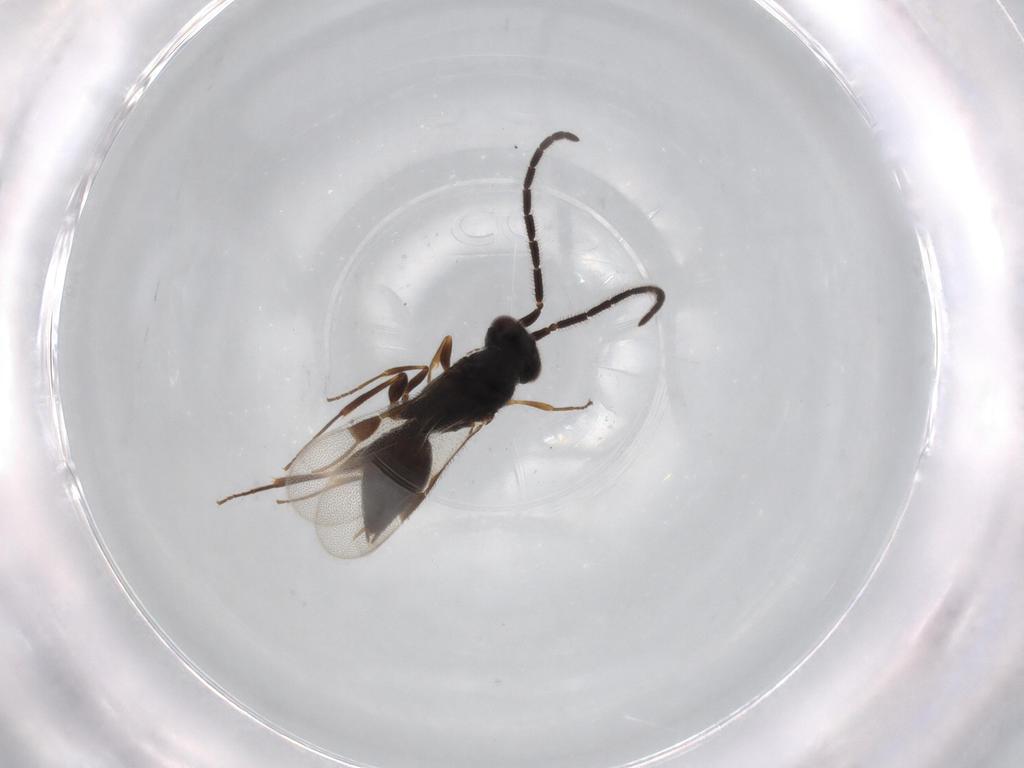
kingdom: Animalia
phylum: Arthropoda
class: Insecta
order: Hymenoptera
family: Megaspilidae
